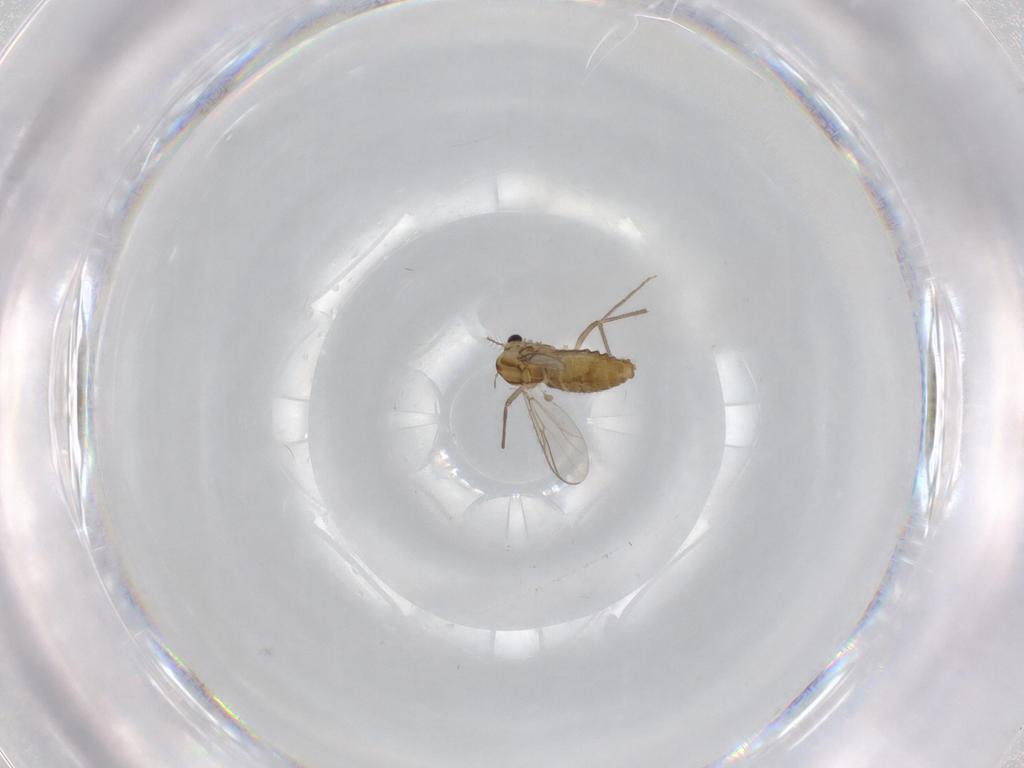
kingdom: Animalia
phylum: Arthropoda
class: Insecta
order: Diptera
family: Chironomidae
